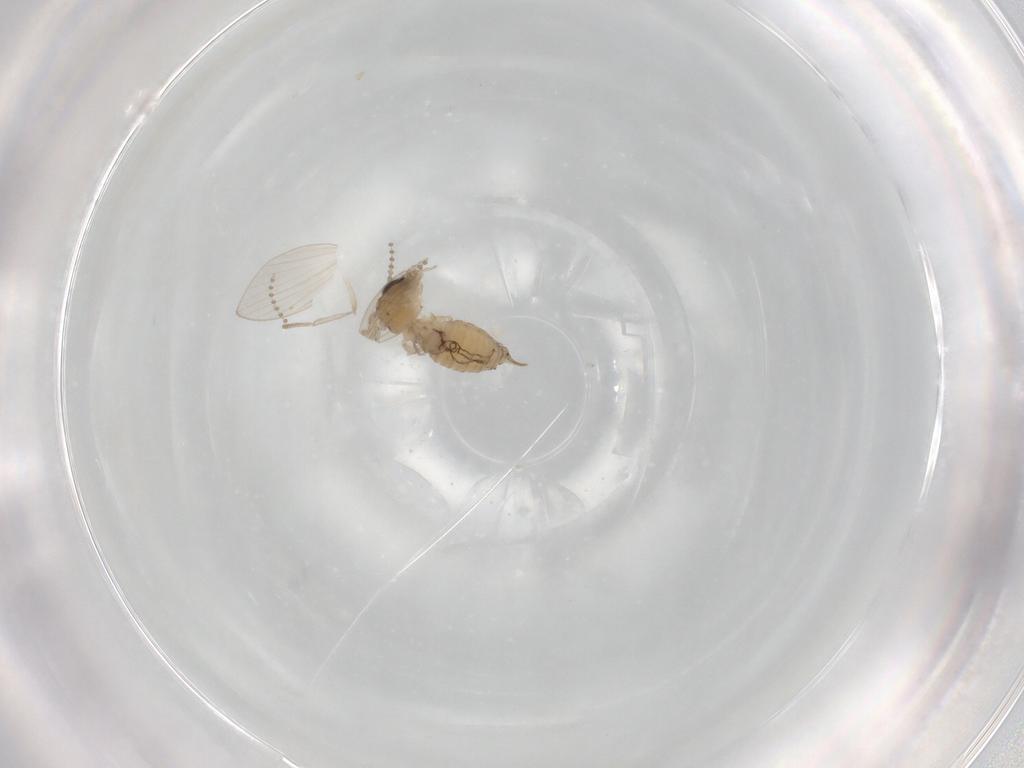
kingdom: Animalia
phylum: Arthropoda
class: Insecta
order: Diptera
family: Psychodidae
